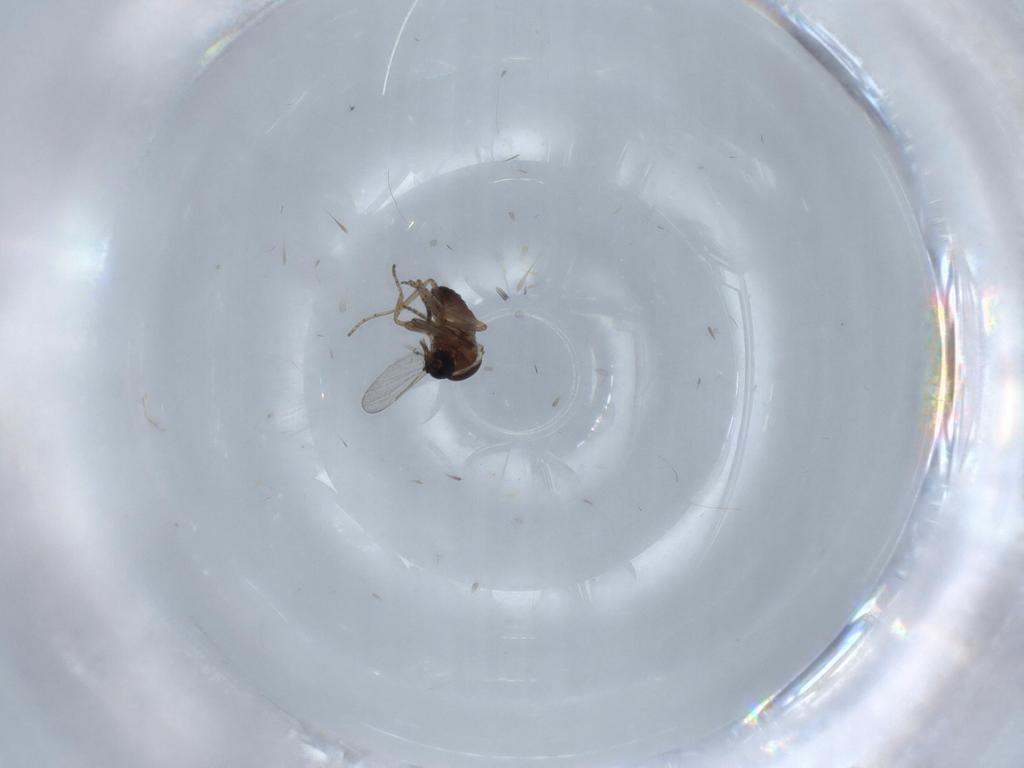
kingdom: Animalia
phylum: Arthropoda
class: Insecta
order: Diptera
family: Ceratopogonidae
